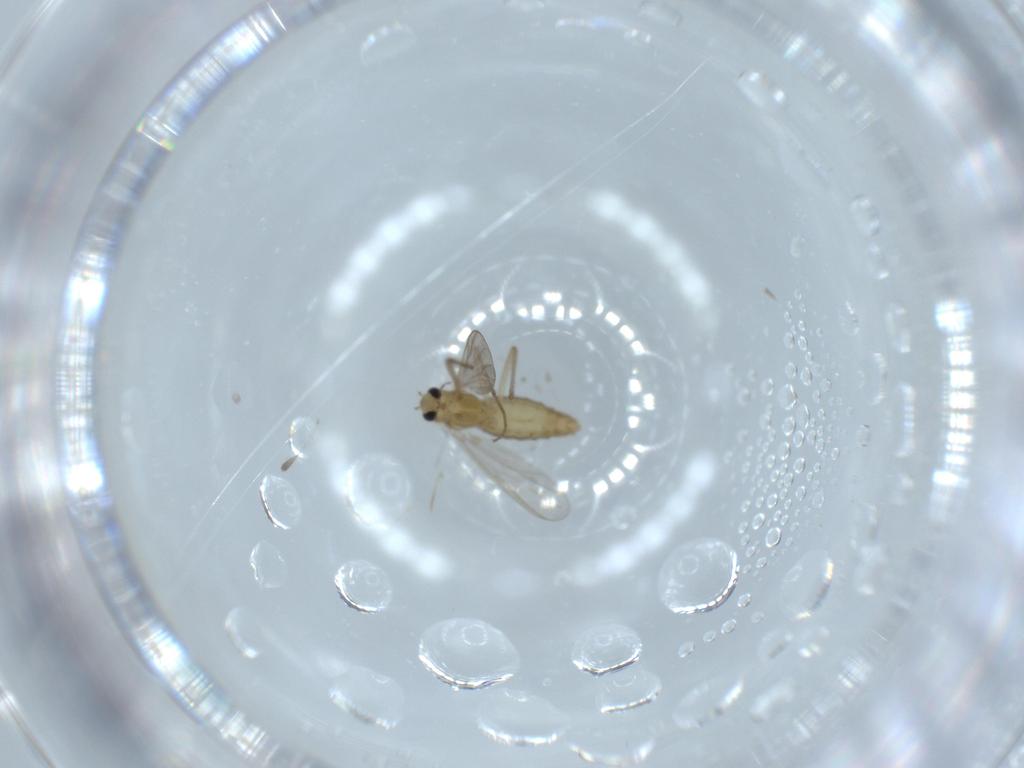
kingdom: Animalia
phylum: Arthropoda
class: Insecta
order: Diptera
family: Chironomidae
